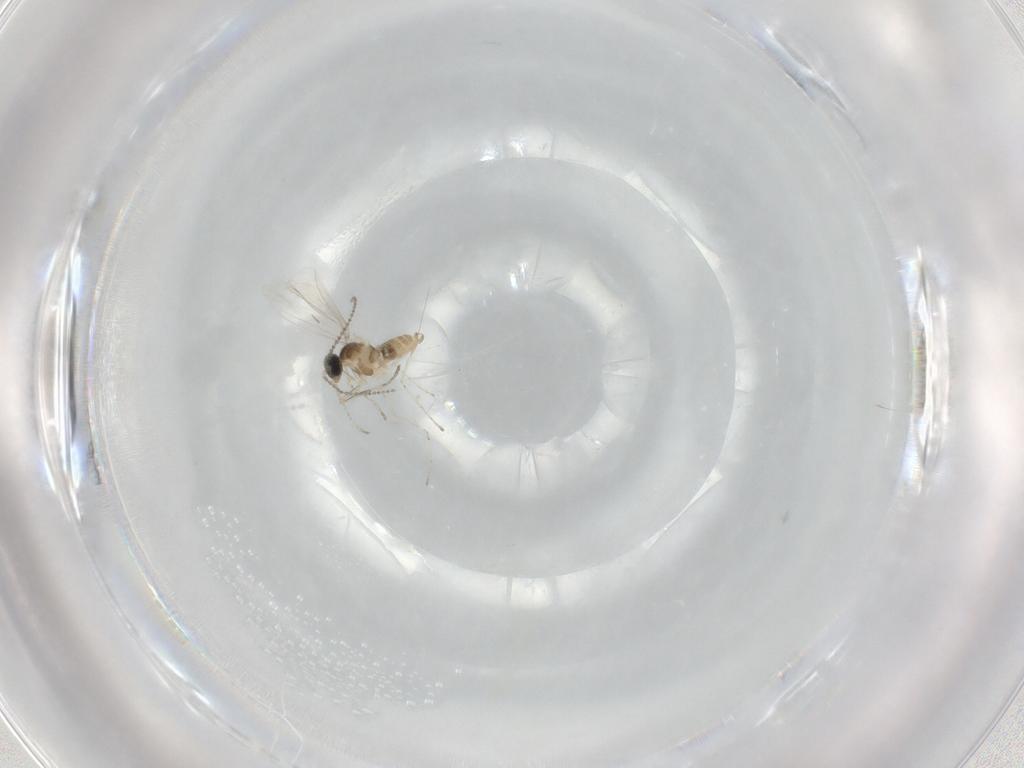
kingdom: Animalia
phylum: Arthropoda
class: Insecta
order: Diptera
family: Cecidomyiidae
